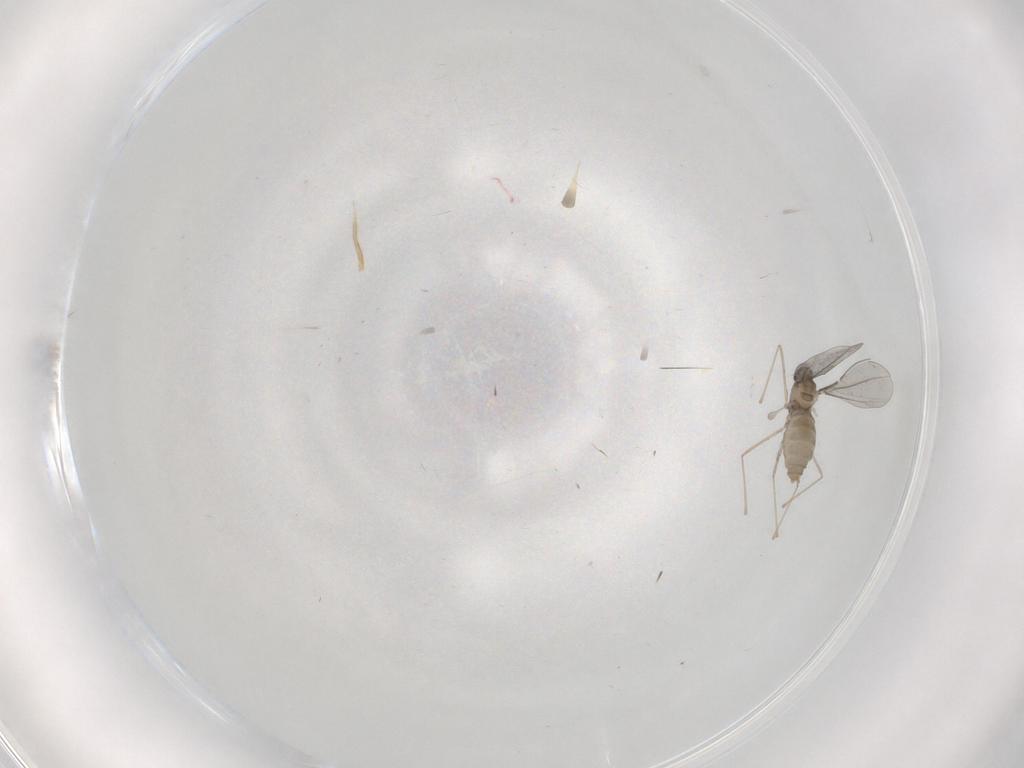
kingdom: Animalia
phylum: Arthropoda
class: Insecta
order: Diptera
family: Cecidomyiidae
